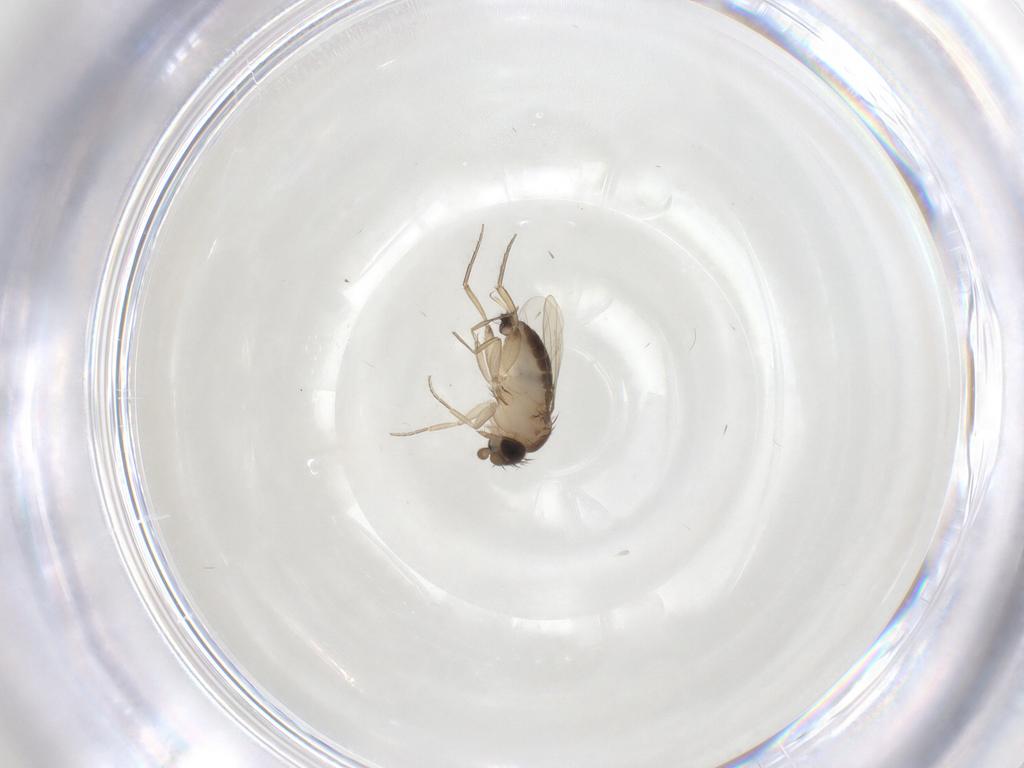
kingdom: Animalia
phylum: Arthropoda
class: Insecta
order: Diptera
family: Phoridae
